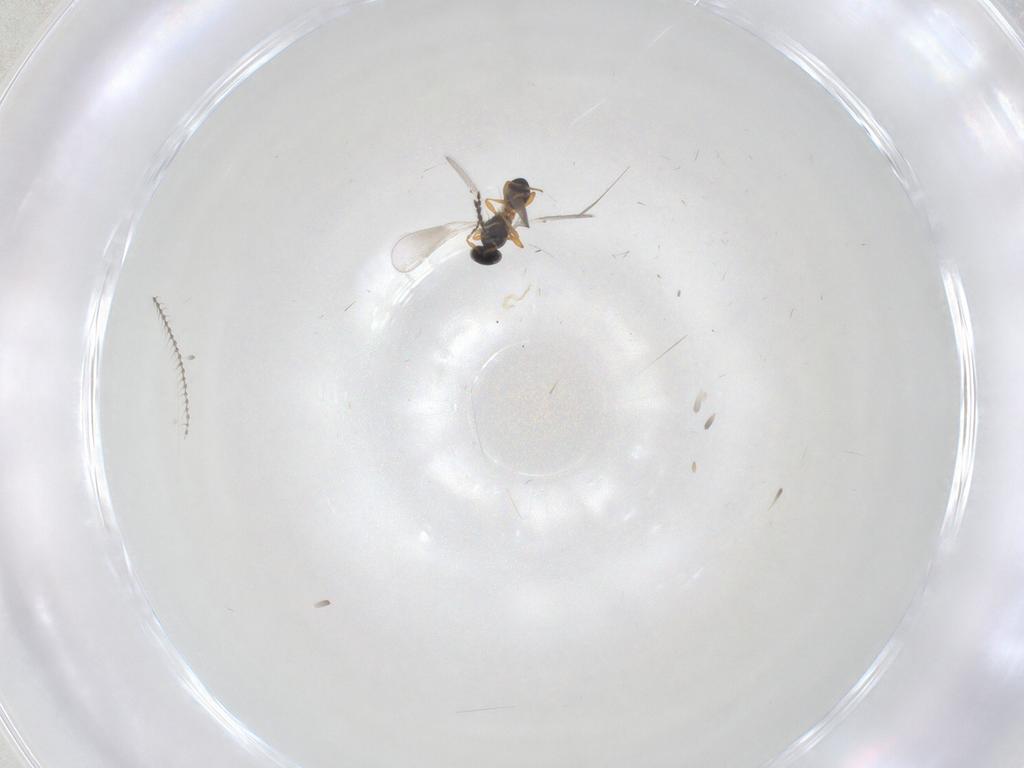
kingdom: Animalia
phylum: Arthropoda
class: Insecta
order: Hymenoptera
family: Platygastridae
